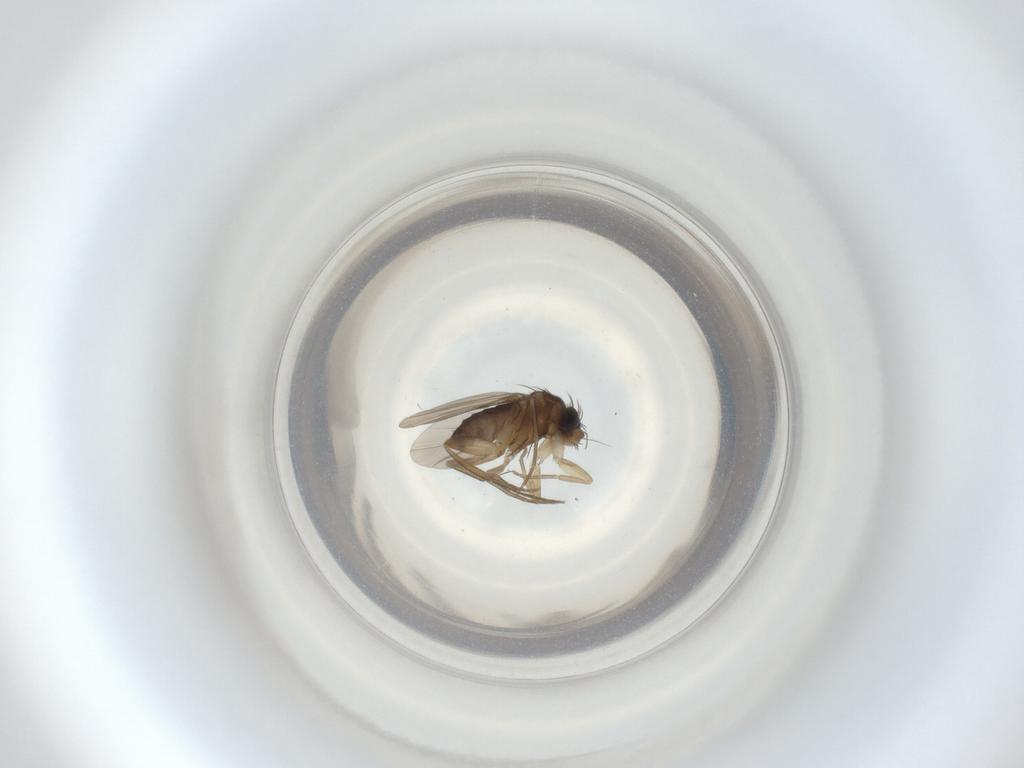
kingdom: Animalia
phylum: Arthropoda
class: Insecta
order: Diptera
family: Phoridae
